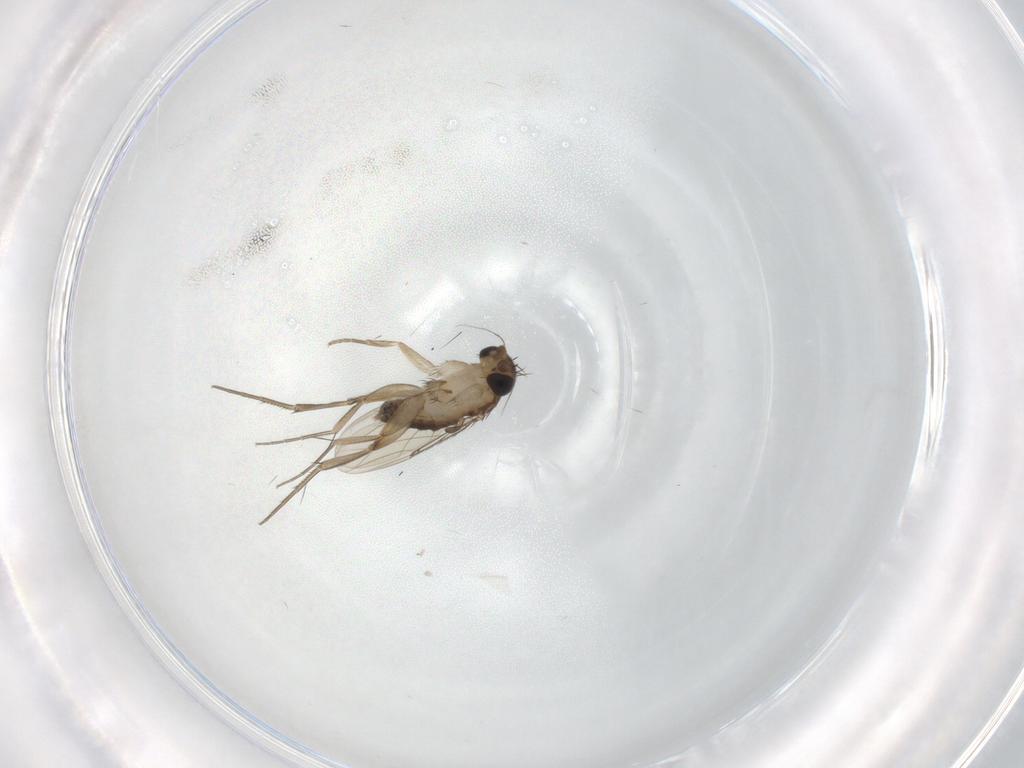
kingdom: Animalia
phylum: Arthropoda
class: Insecta
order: Diptera
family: Phoridae
